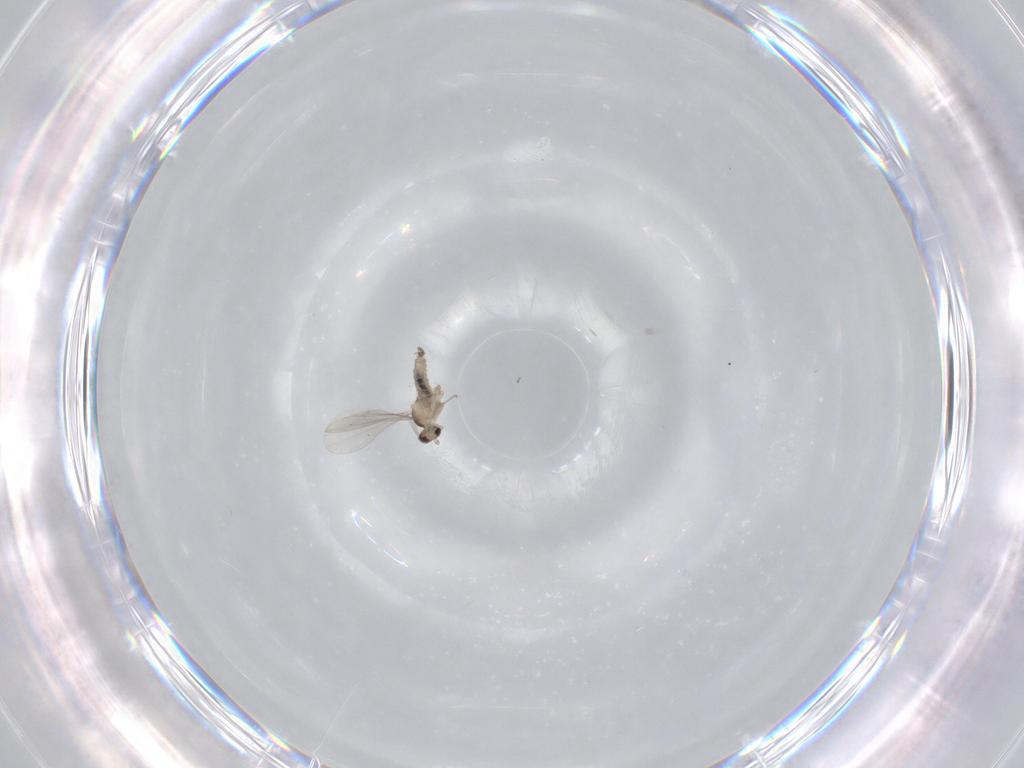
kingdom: Animalia
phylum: Arthropoda
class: Insecta
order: Diptera
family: Cecidomyiidae
